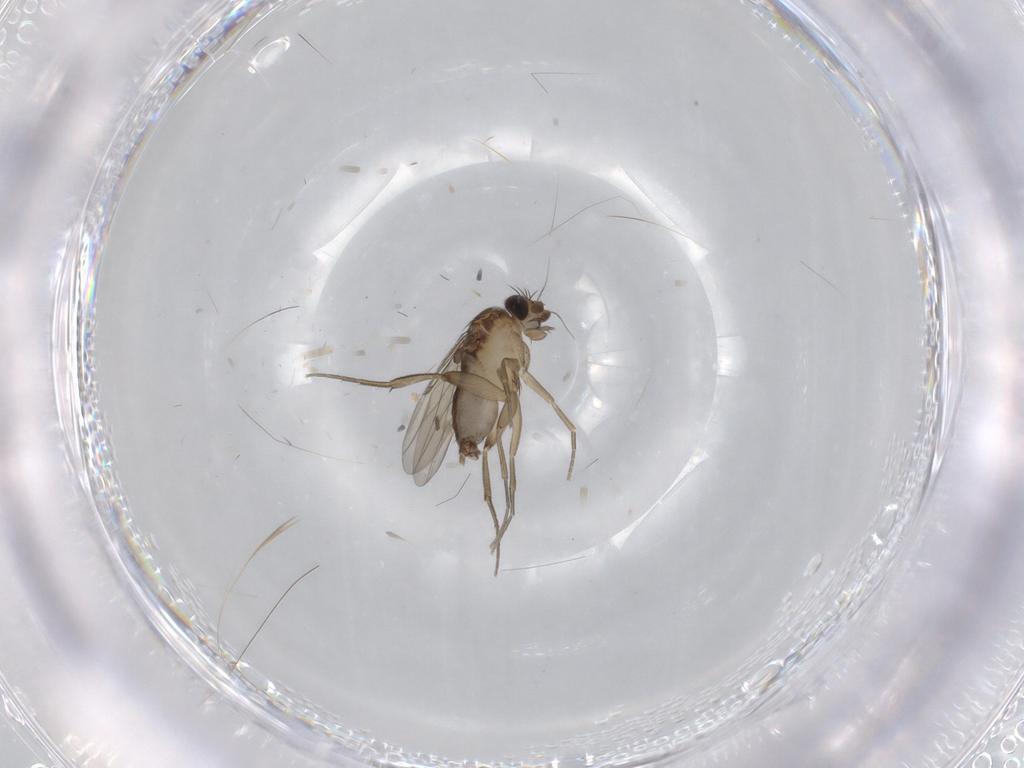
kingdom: Animalia
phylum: Arthropoda
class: Insecta
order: Diptera
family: Phoridae
